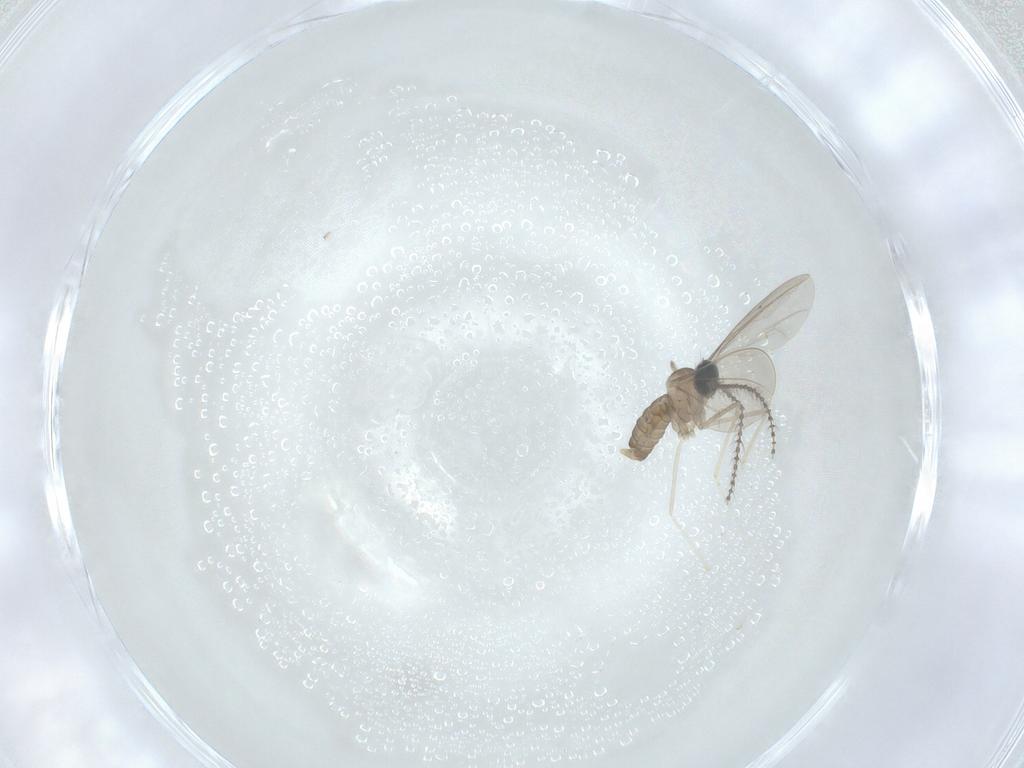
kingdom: Animalia
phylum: Arthropoda
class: Insecta
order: Diptera
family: Cecidomyiidae
